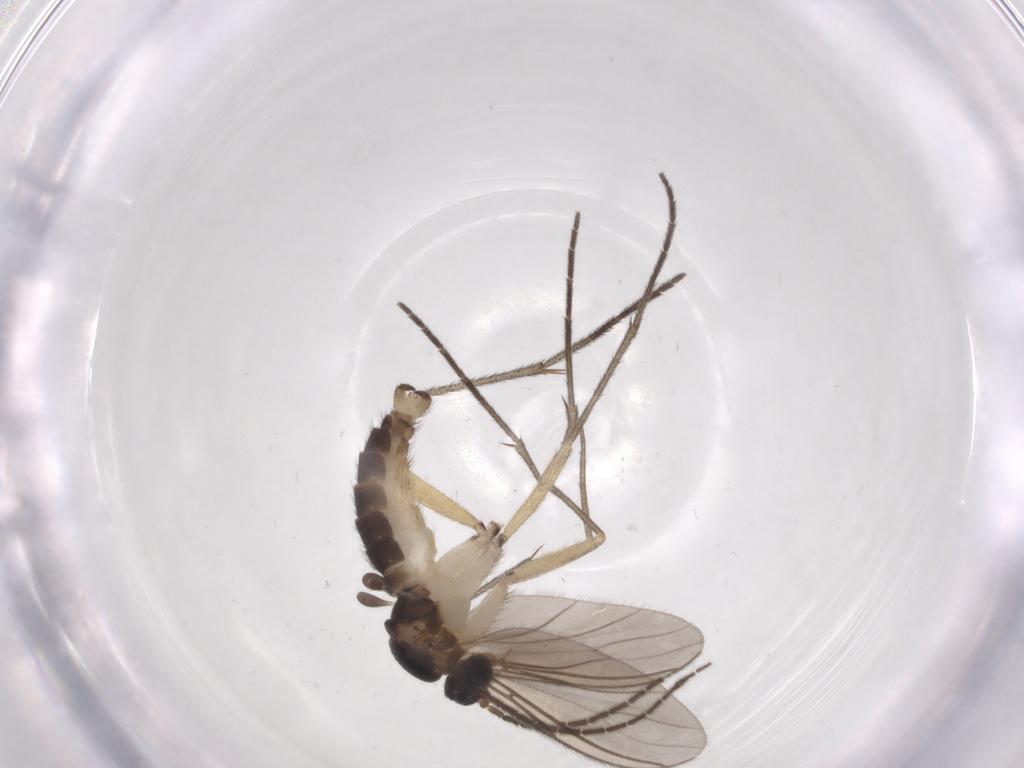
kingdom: Animalia
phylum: Arthropoda
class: Insecta
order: Diptera
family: Sciaridae
